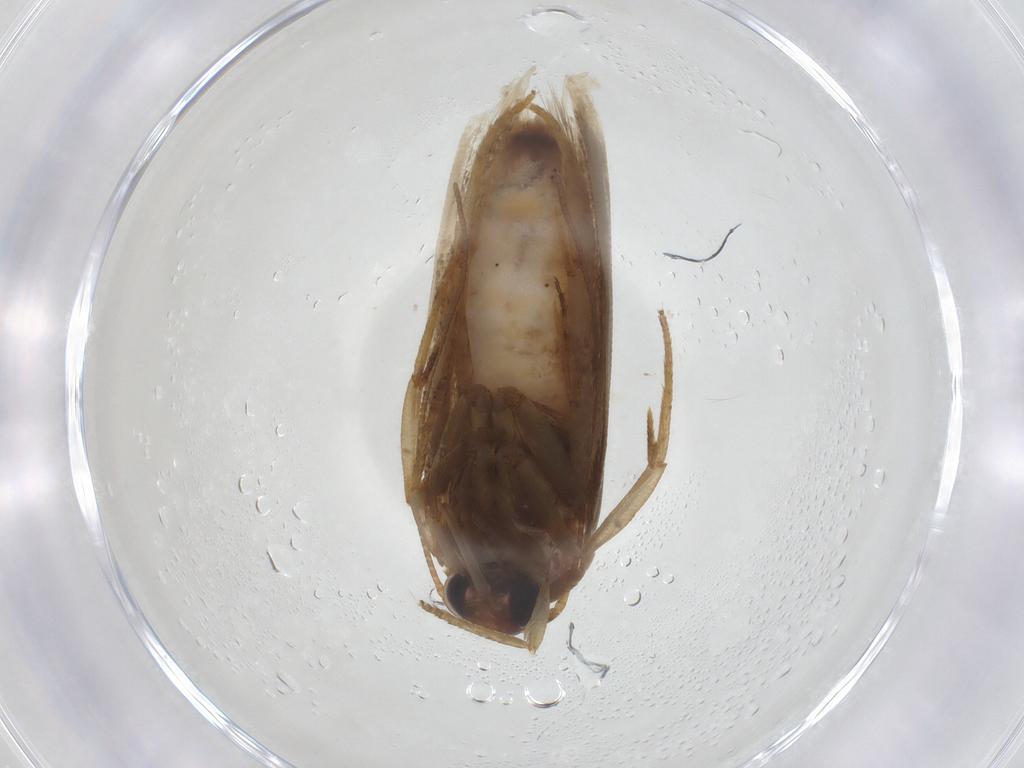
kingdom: Animalia
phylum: Arthropoda
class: Insecta
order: Lepidoptera
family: Blastobasidae
